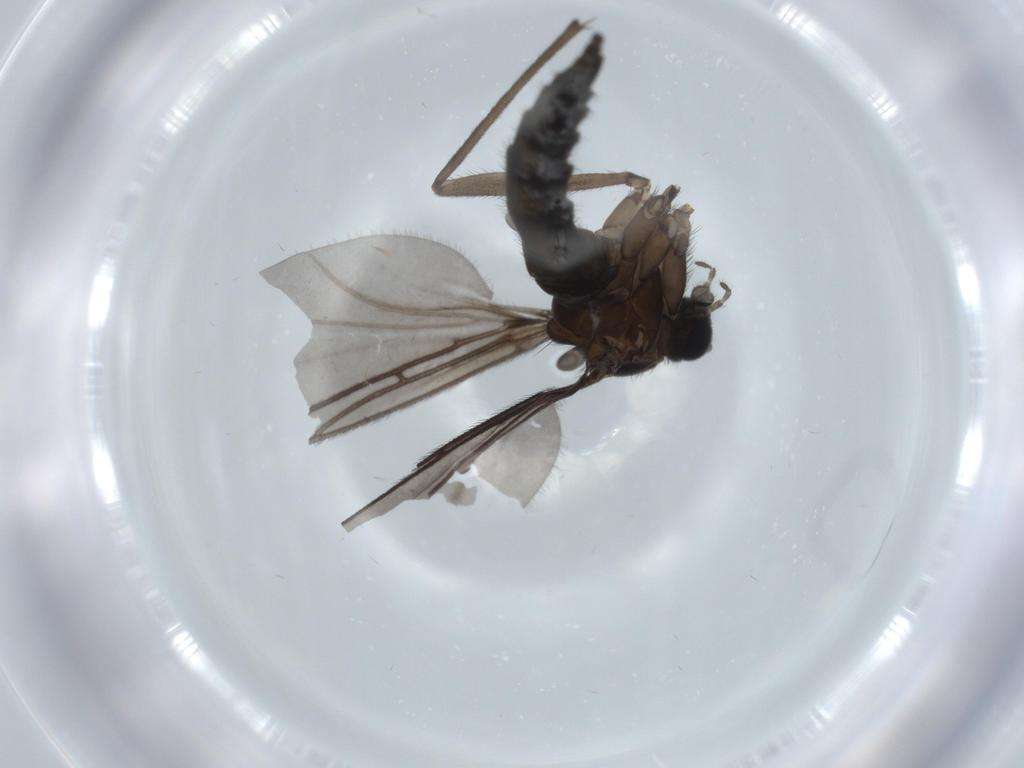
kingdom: Animalia
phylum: Arthropoda
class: Insecta
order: Diptera
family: Sciaridae
